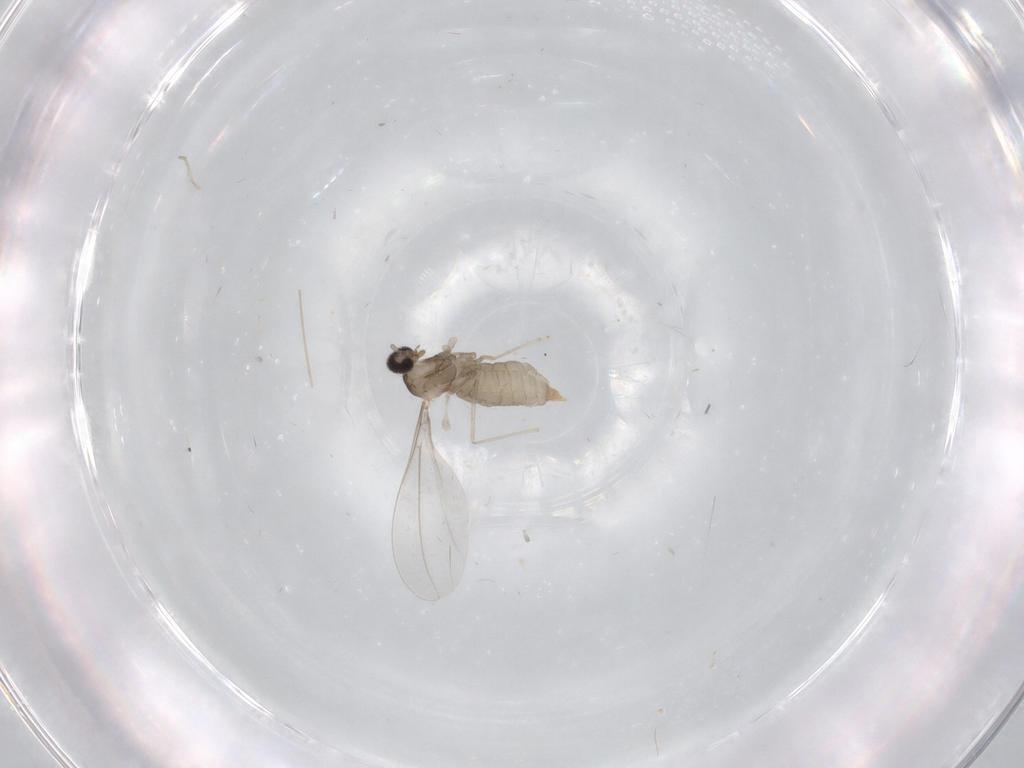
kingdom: Animalia
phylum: Arthropoda
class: Insecta
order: Diptera
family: Cecidomyiidae
